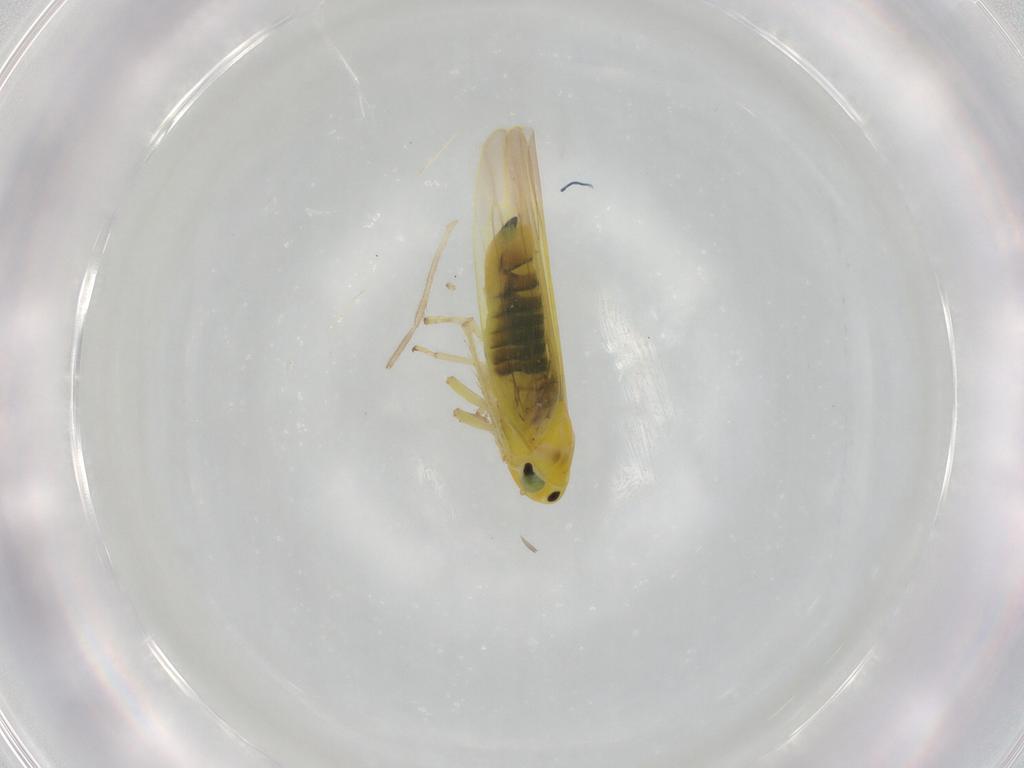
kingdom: Animalia
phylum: Arthropoda
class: Insecta
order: Hemiptera
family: Cicadellidae
